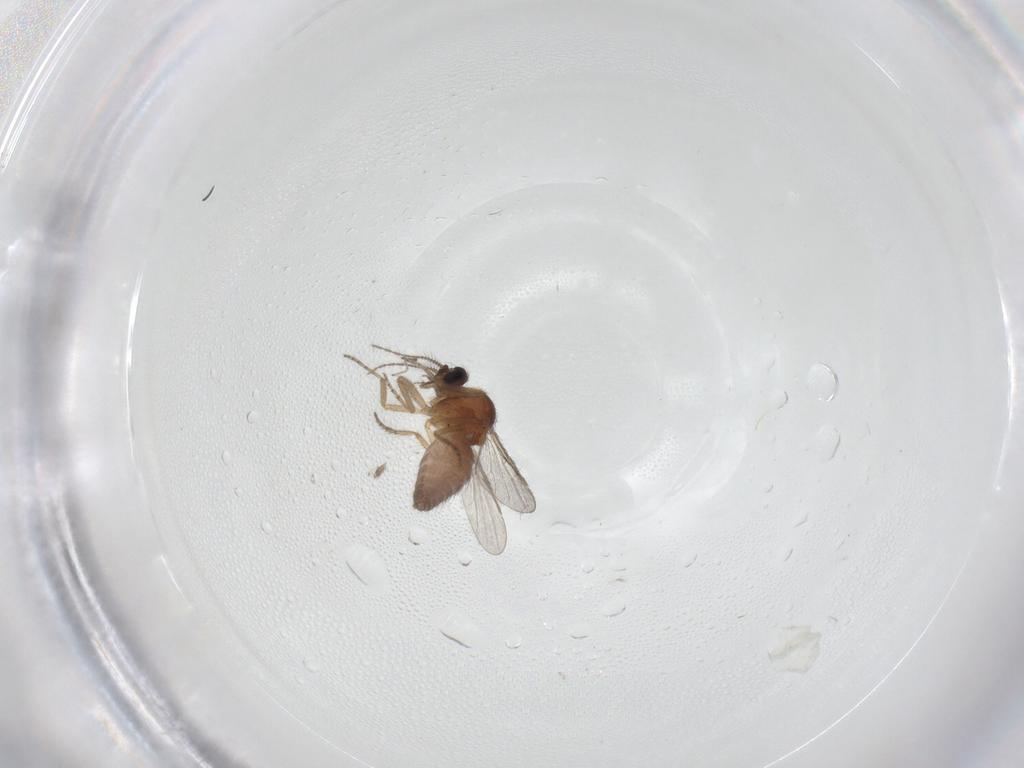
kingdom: Animalia
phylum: Arthropoda
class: Insecta
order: Diptera
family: Ceratopogonidae
